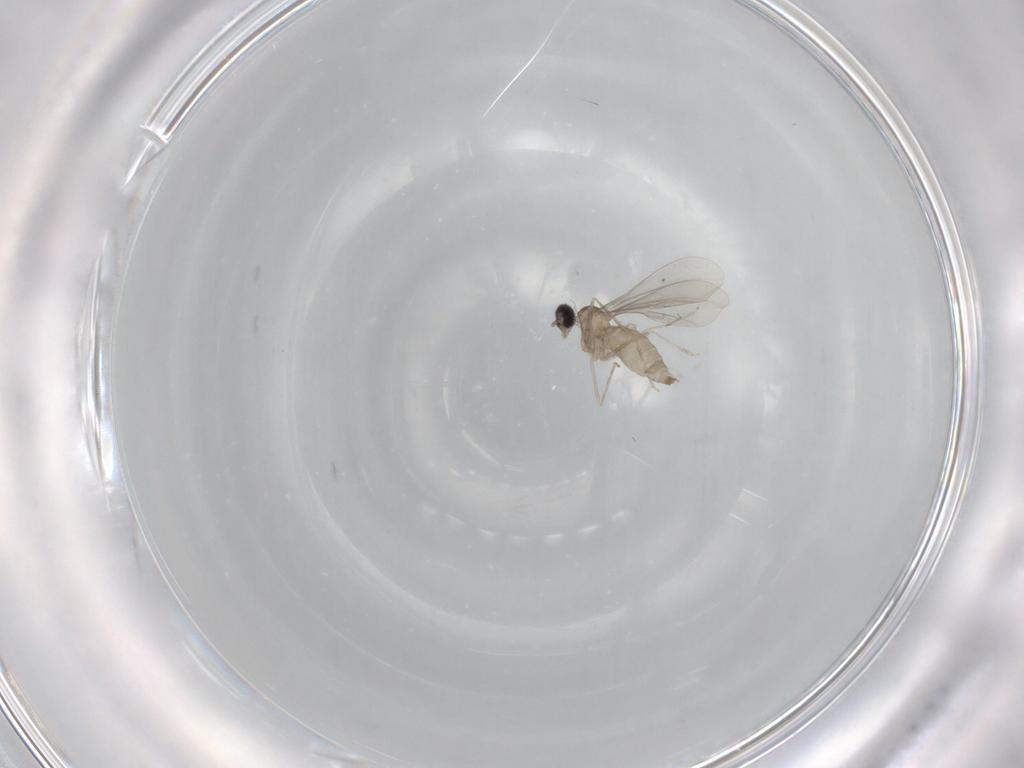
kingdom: Animalia
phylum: Arthropoda
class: Insecta
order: Diptera
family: Cecidomyiidae
